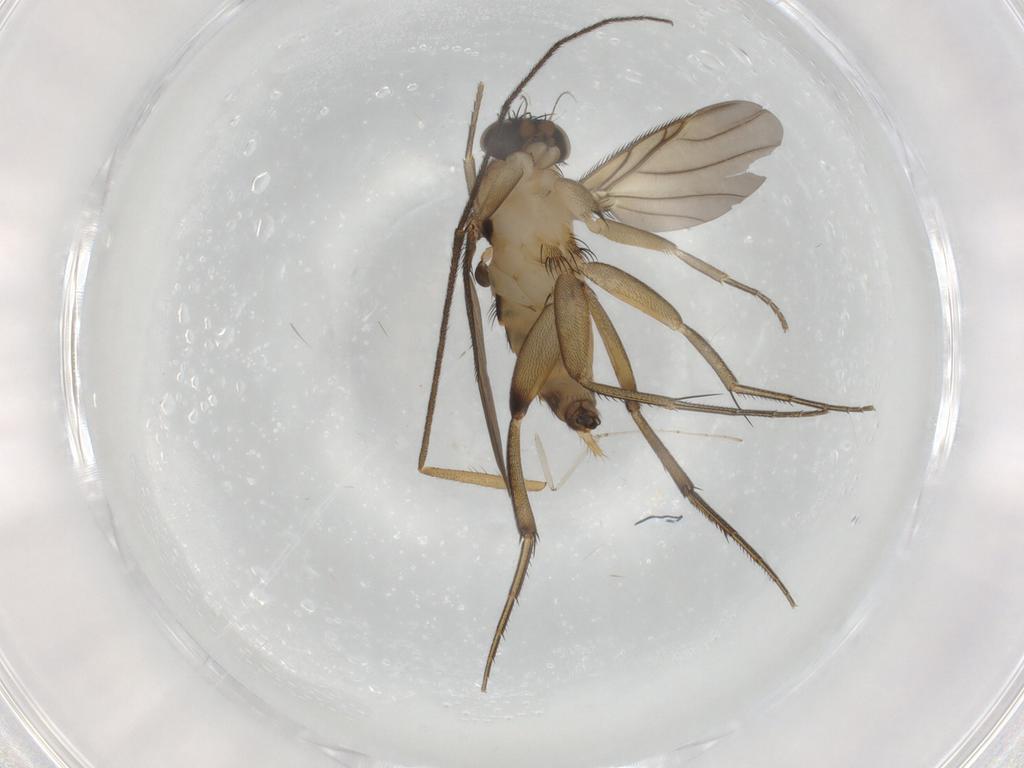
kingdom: Animalia
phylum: Arthropoda
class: Insecta
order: Diptera
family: Phoridae
